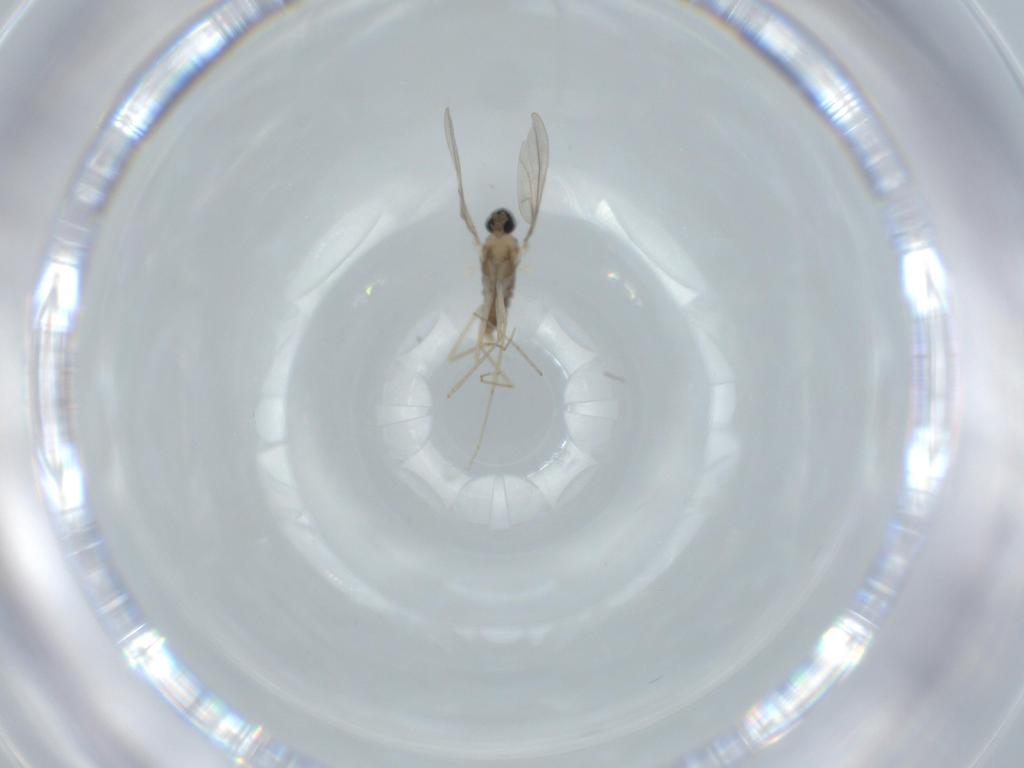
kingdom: Animalia
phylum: Arthropoda
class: Insecta
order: Diptera
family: Cecidomyiidae
